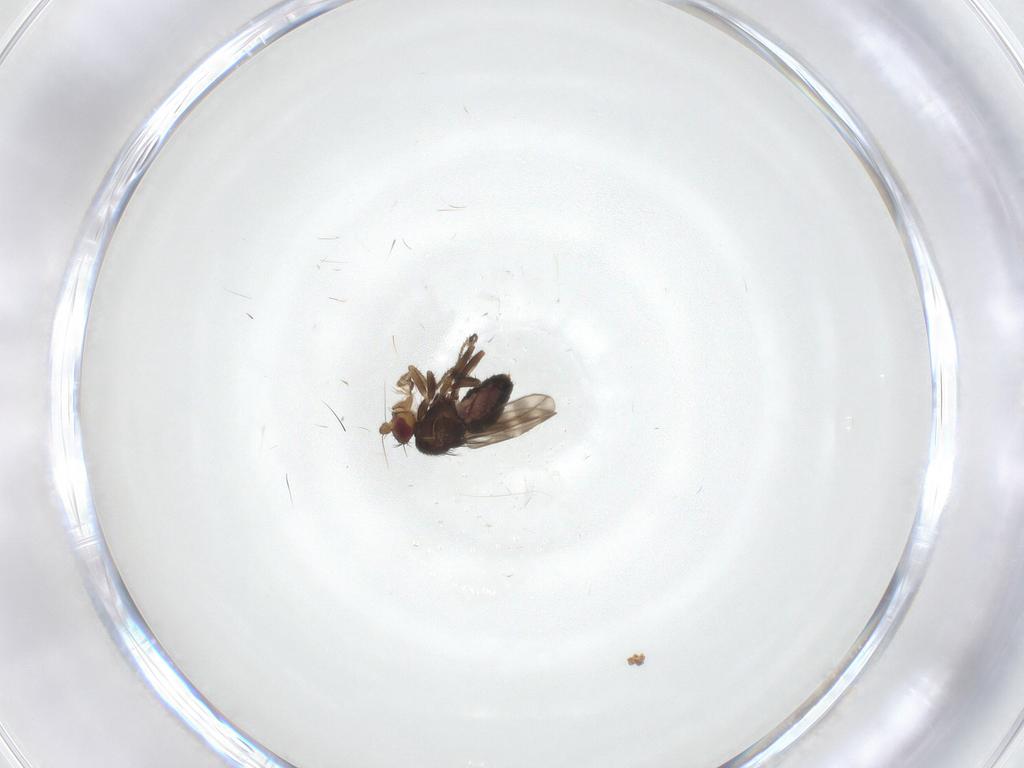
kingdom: Animalia
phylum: Arthropoda
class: Insecta
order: Diptera
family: Sphaeroceridae
